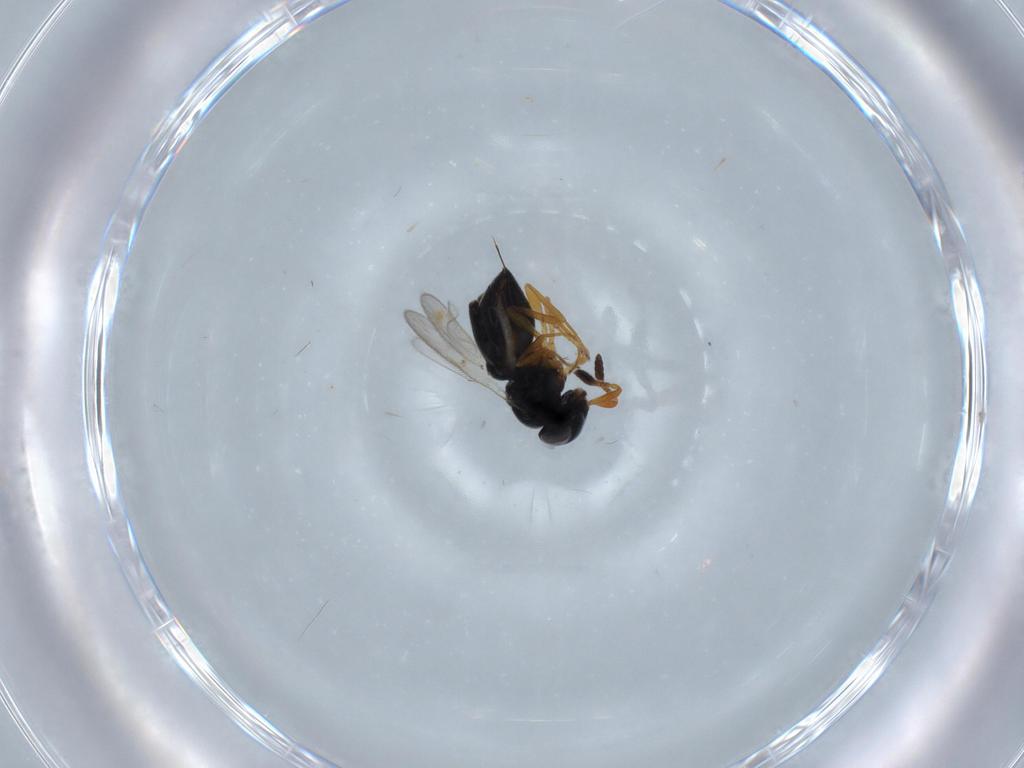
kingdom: Animalia
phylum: Arthropoda
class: Insecta
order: Hymenoptera
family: Scelionidae
